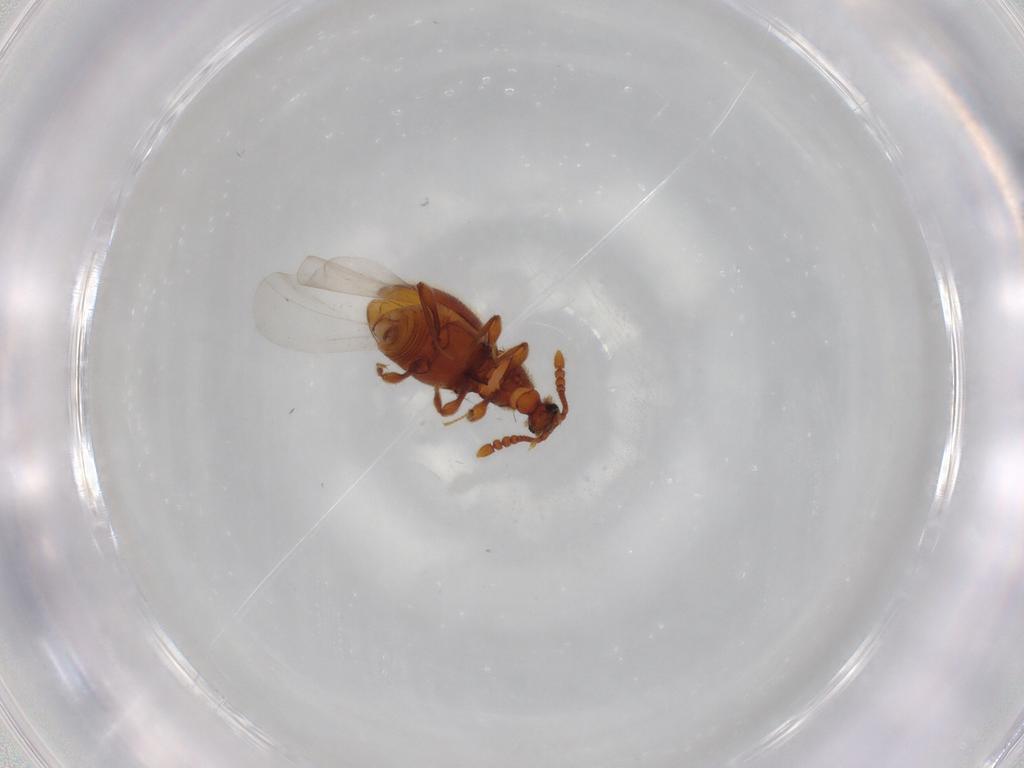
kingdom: Animalia
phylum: Arthropoda
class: Insecta
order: Coleoptera
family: Staphylinidae
